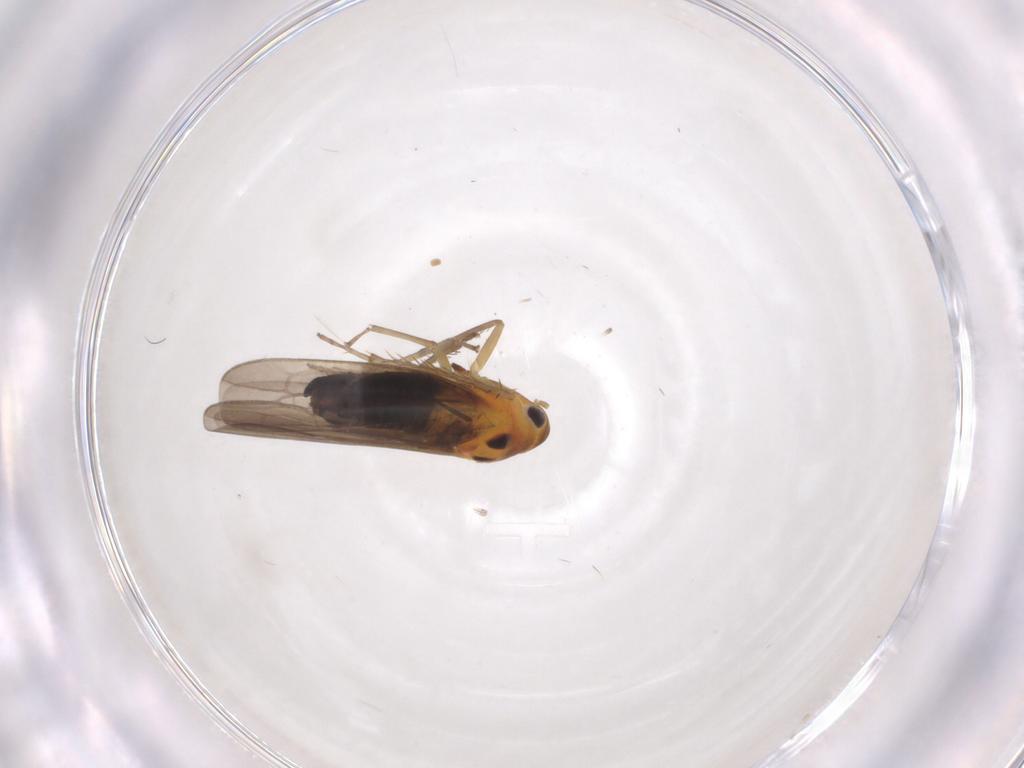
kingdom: Animalia
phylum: Arthropoda
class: Insecta
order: Hemiptera
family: Cicadellidae
